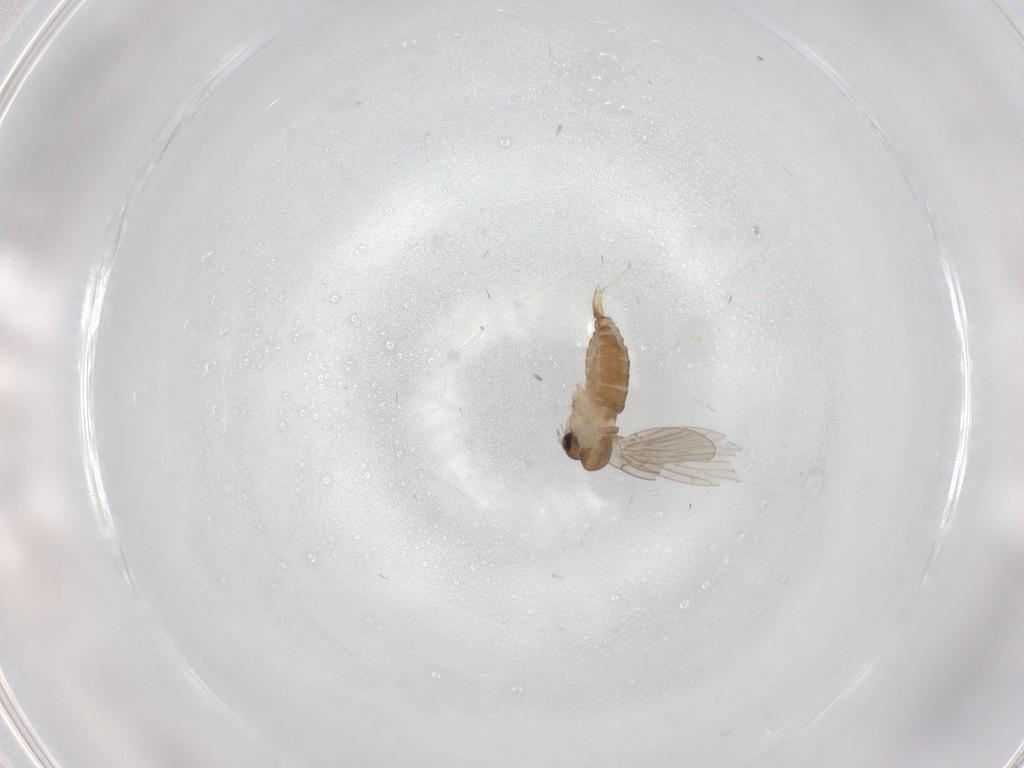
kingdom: Animalia
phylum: Arthropoda
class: Insecta
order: Diptera
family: Psychodidae
